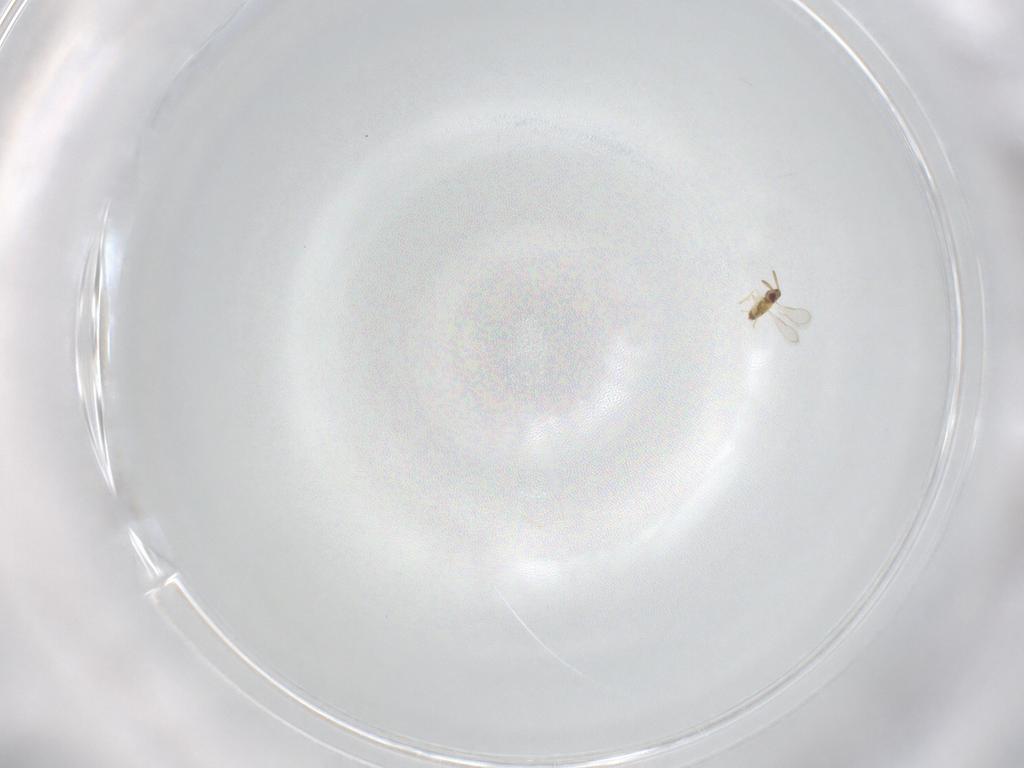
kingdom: Animalia
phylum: Arthropoda
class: Insecta
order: Hymenoptera
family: Aphelinidae
